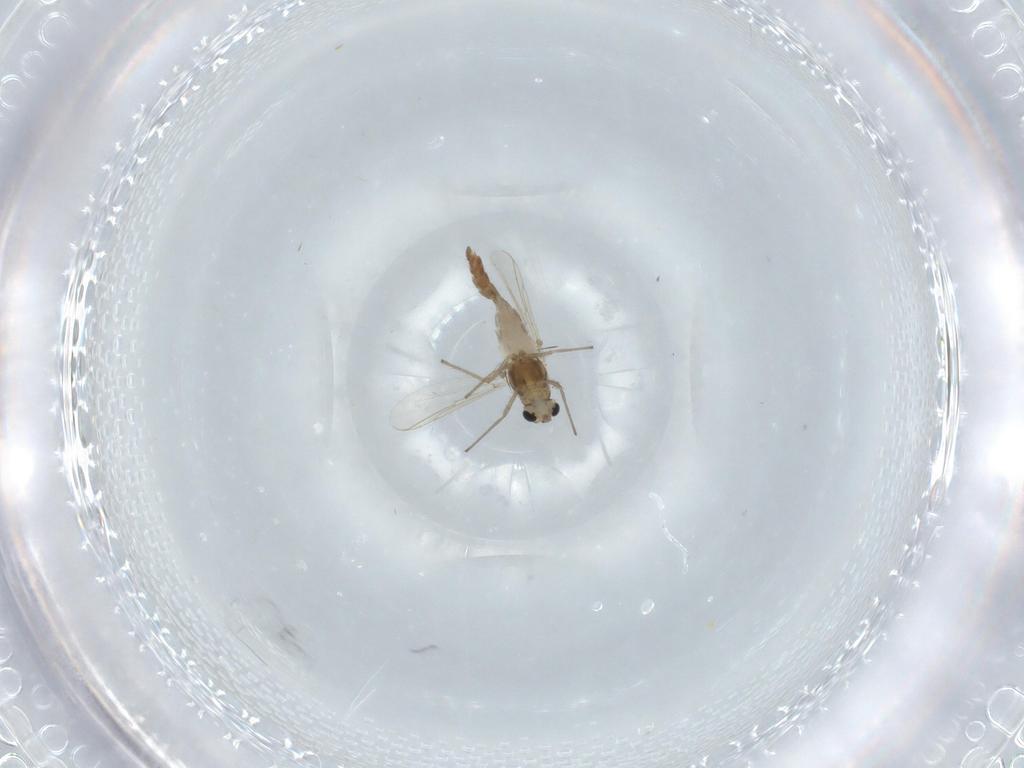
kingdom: Animalia
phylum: Arthropoda
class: Insecta
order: Diptera
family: Chironomidae
